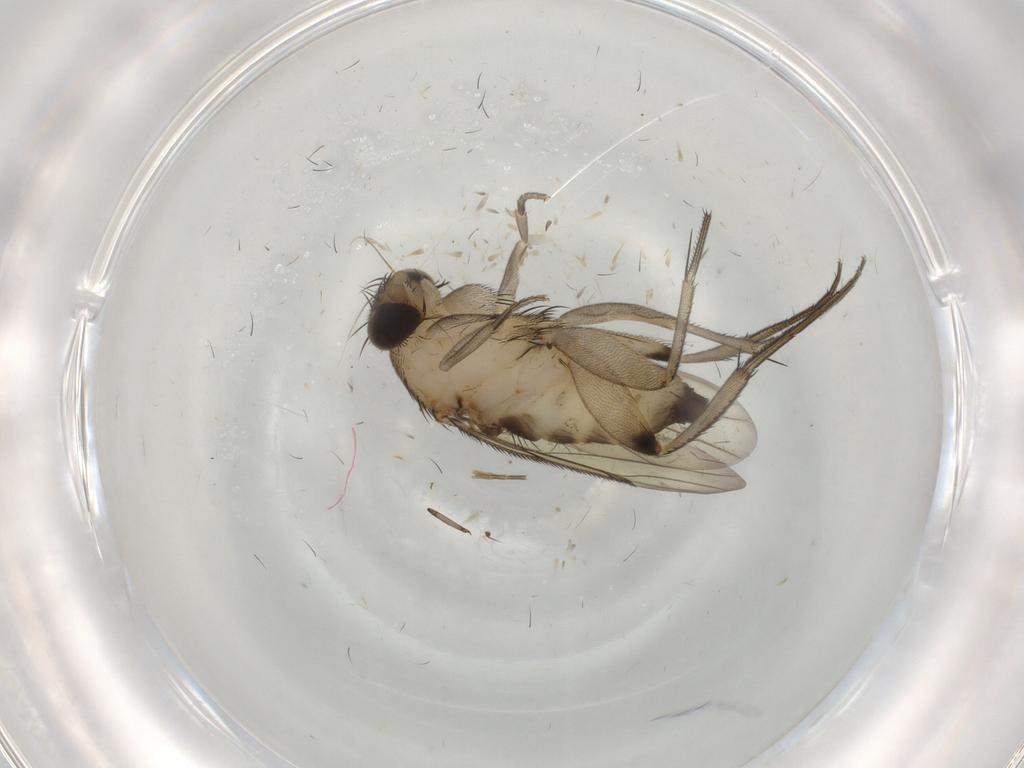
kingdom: Animalia
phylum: Arthropoda
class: Insecta
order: Diptera
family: Phoridae
